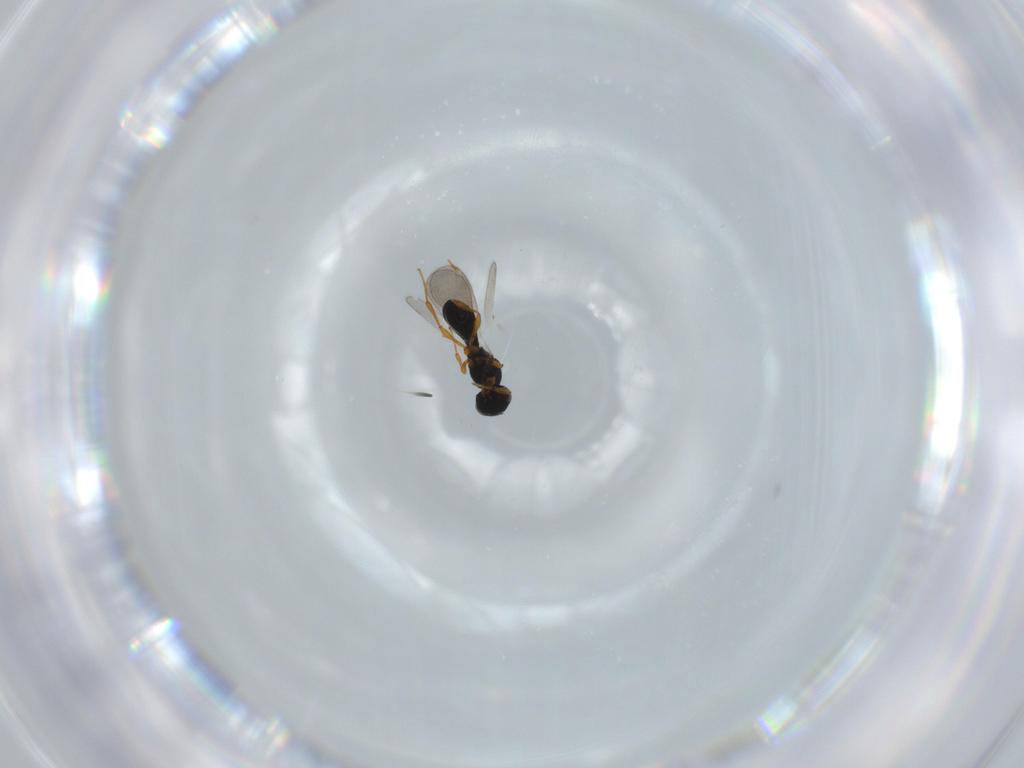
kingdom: Animalia
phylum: Arthropoda
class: Insecta
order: Hymenoptera
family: Platygastridae
